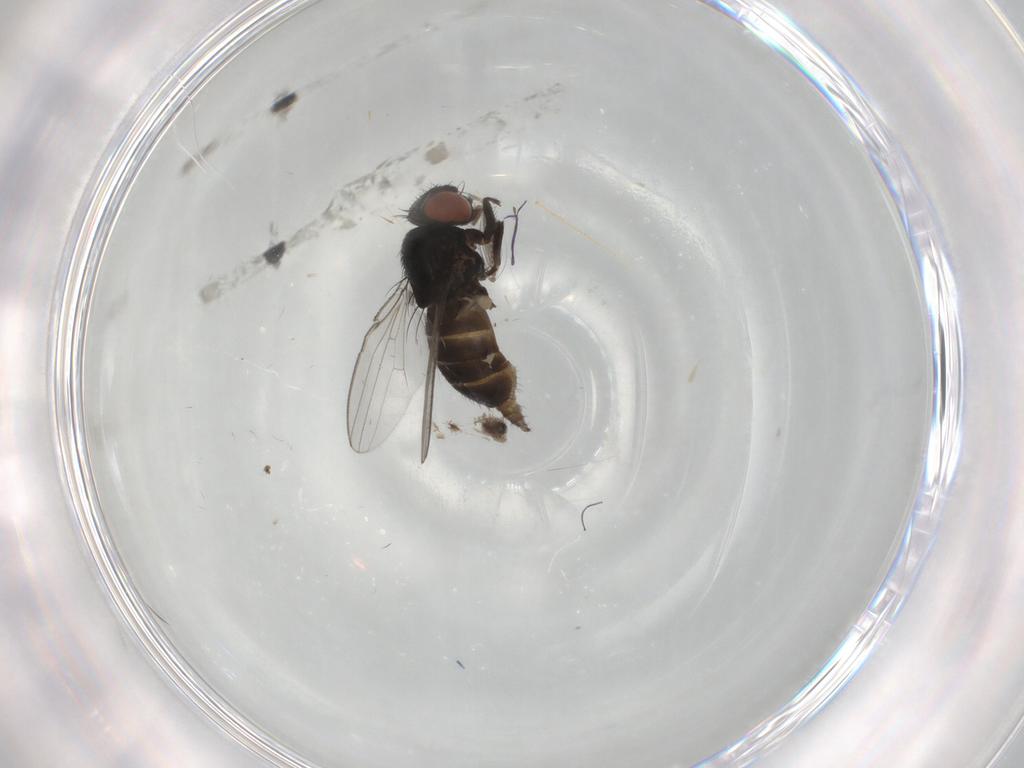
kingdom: Animalia
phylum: Arthropoda
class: Insecta
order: Diptera
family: Milichiidae
